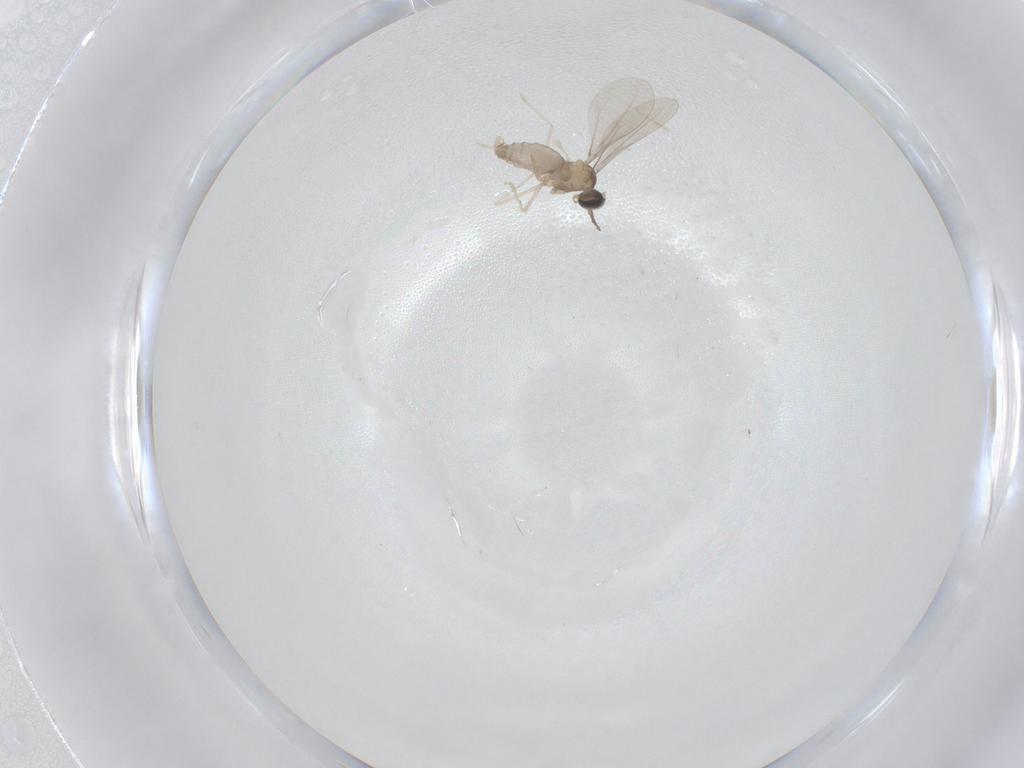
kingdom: Animalia
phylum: Arthropoda
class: Insecta
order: Diptera
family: Cecidomyiidae
